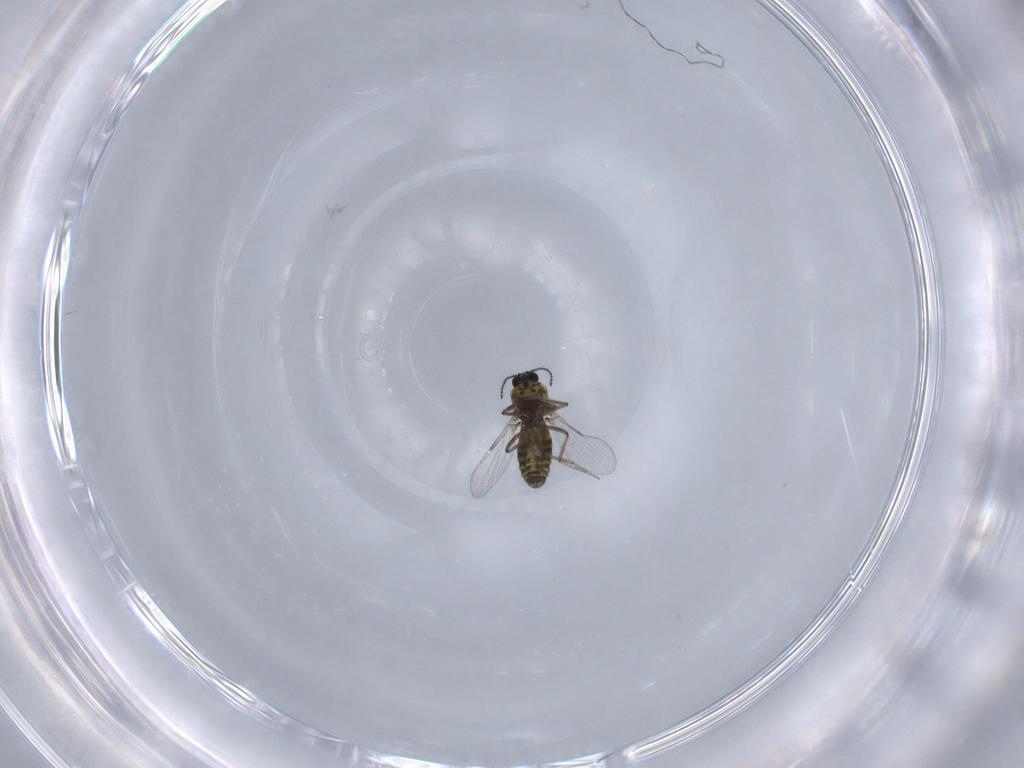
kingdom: Animalia
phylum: Arthropoda
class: Insecta
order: Diptera
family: Ceratopogonidae
